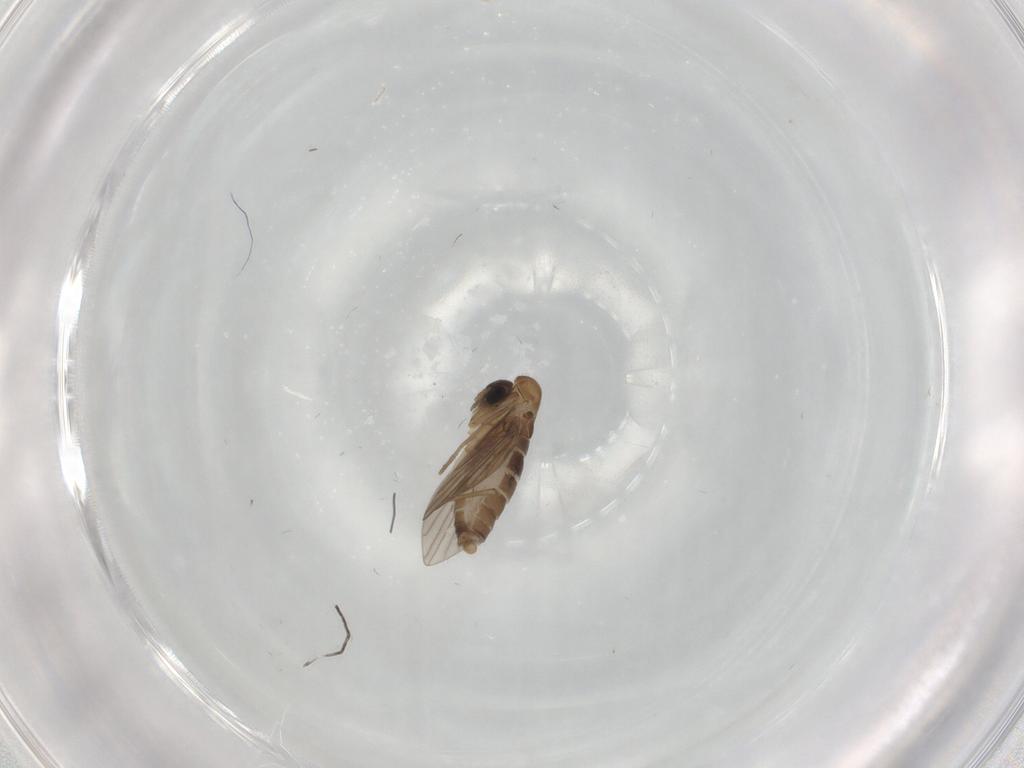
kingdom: Animalia
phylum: Arthropoda
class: Insecta
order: Diptera
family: Psychodidae
